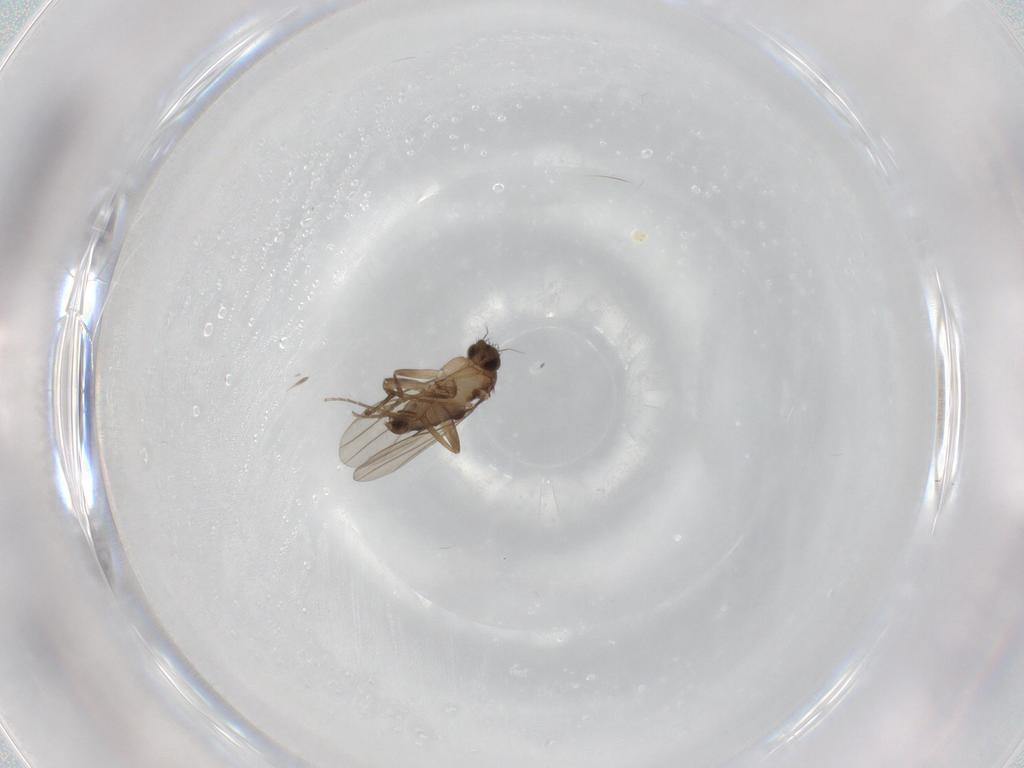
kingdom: Animalia
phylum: Arthropoda
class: Insecta
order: Diptera
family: Phoridae
